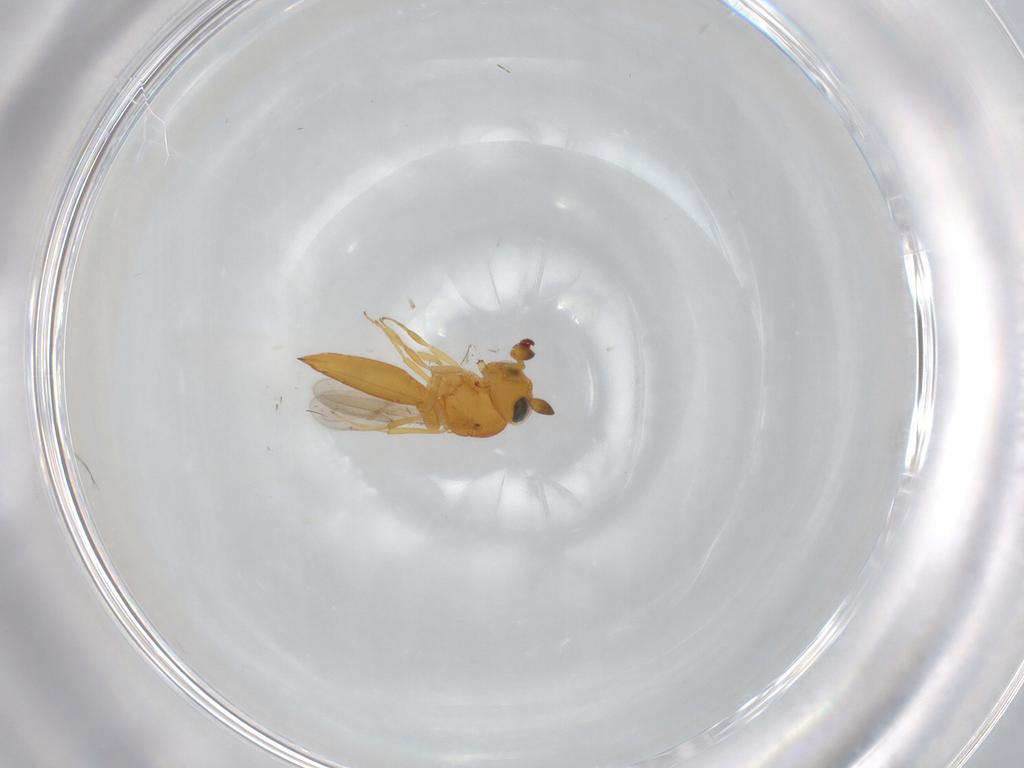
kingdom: Animalia
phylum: Arthropoda
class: Insecta
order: Hymenoptera
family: Scelionidae
